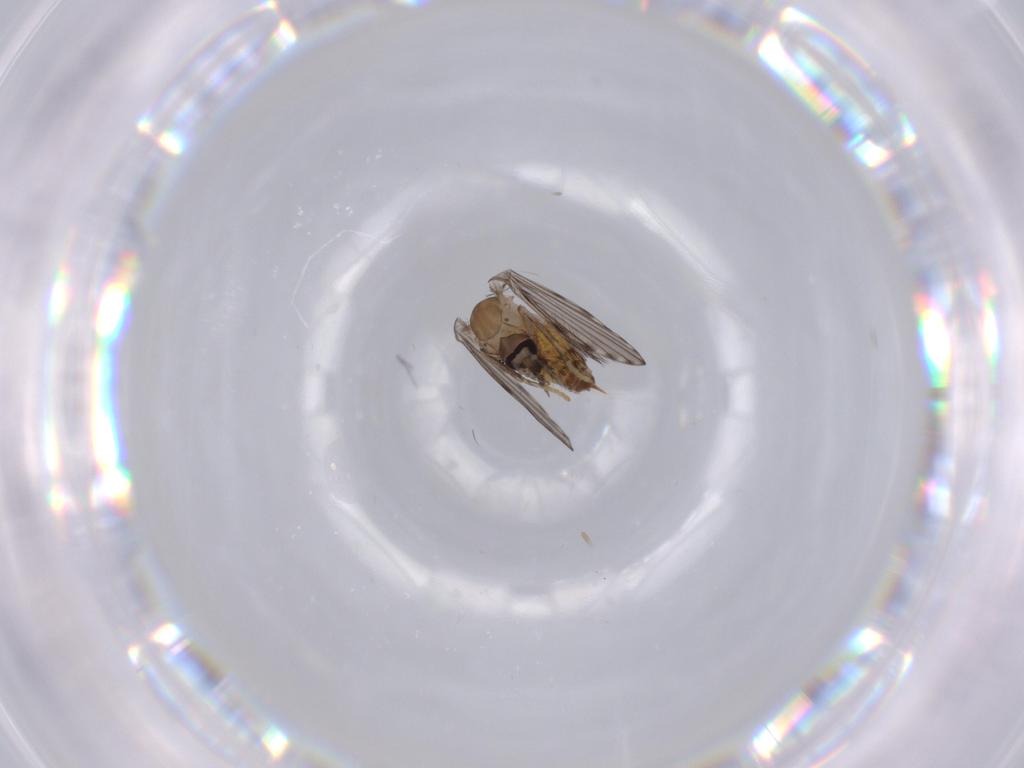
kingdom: Animalia
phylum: Arthropoda
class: Insecta
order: Diptera
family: Psychodidae
